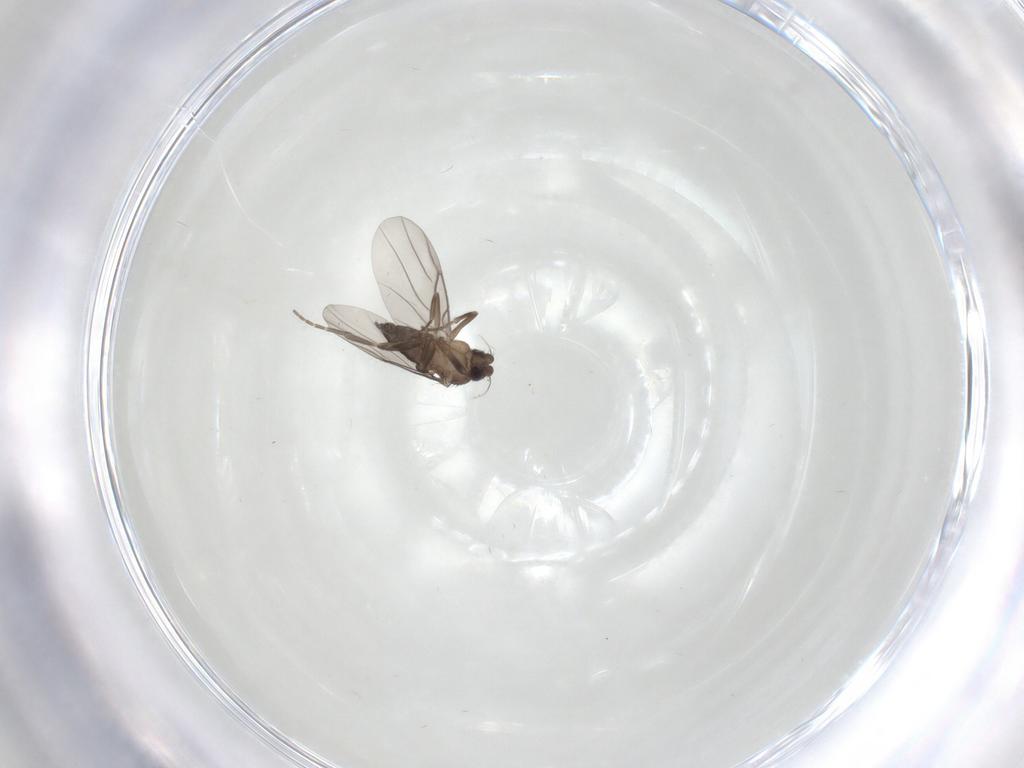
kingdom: Animalia
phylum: Arthropoda
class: Insecta
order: Diptera
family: Phoridae
